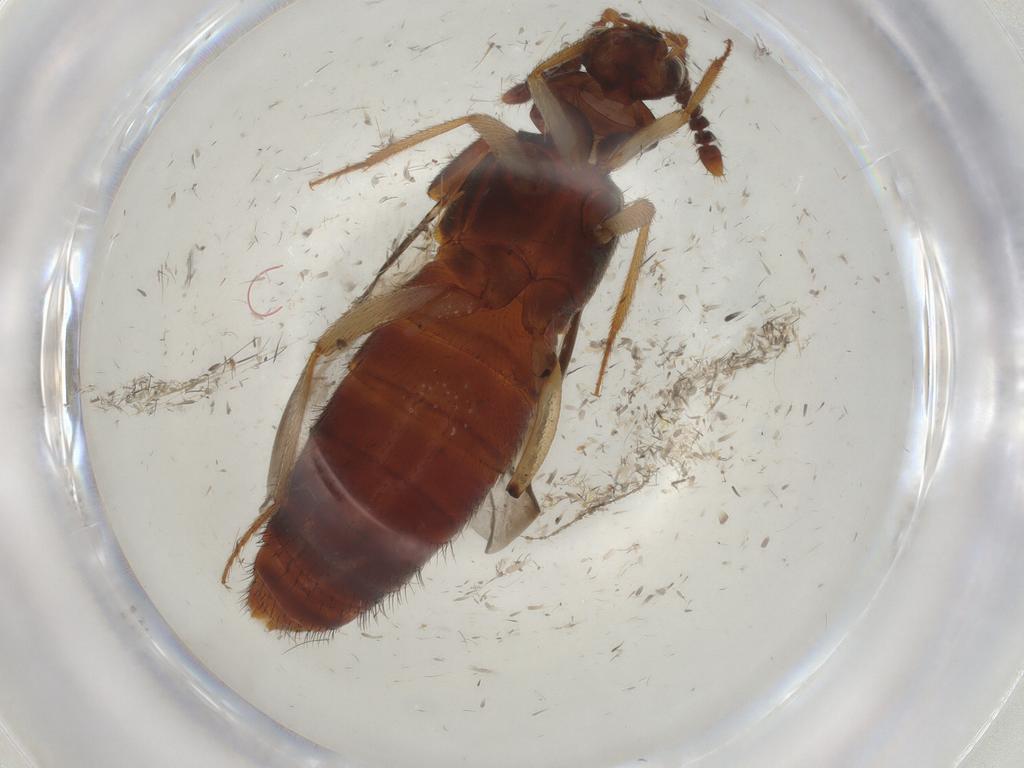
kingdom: Animalia
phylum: Arthropoda
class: Insecta
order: Coleoptera
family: Staphylinidae
